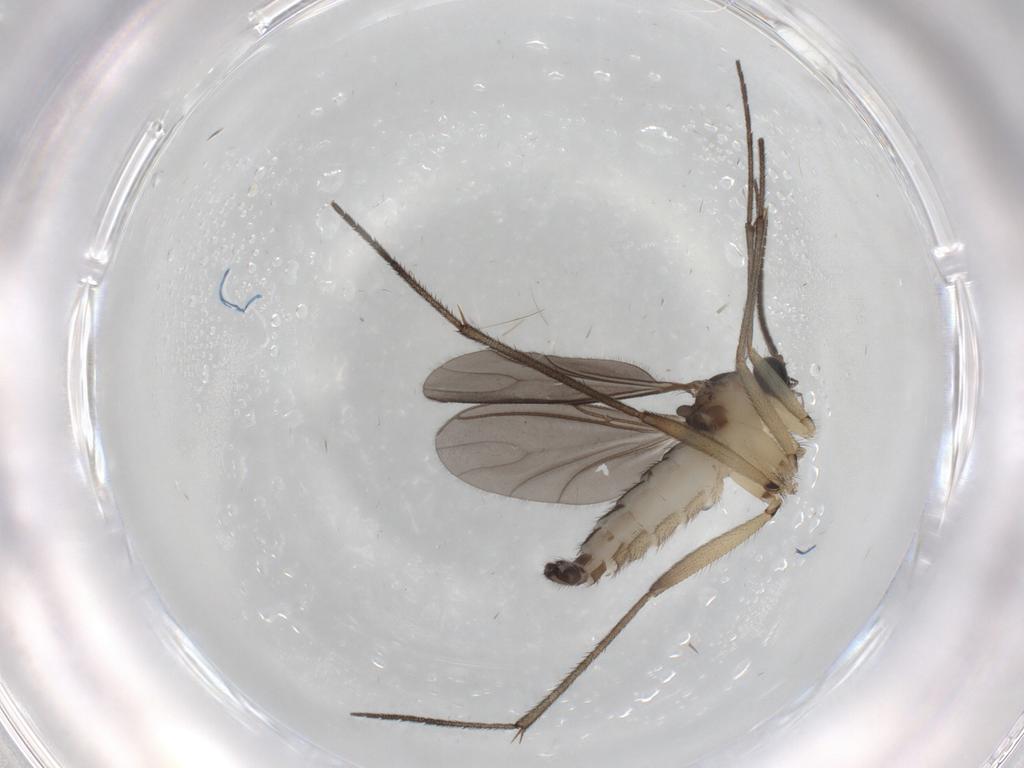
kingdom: Animalia
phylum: Arthropoda
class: Insecta
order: Diptera
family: Sciaridae
